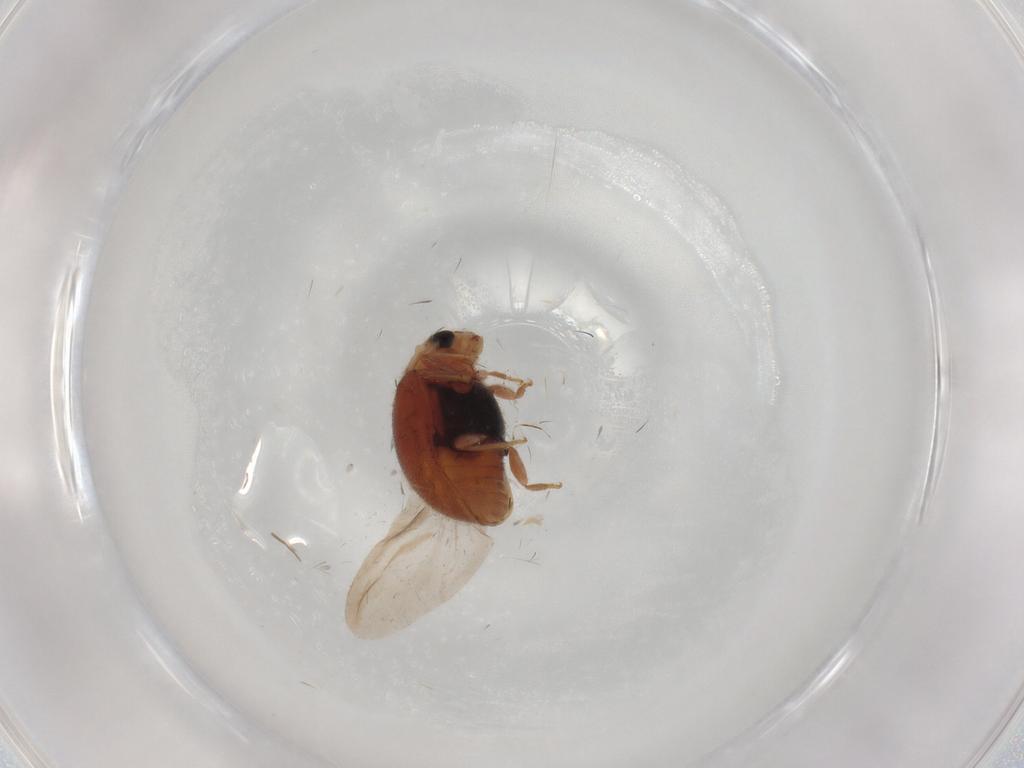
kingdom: Animalia
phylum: Arthropoda
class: Insecta
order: Coleoptera
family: Coccinellidae
